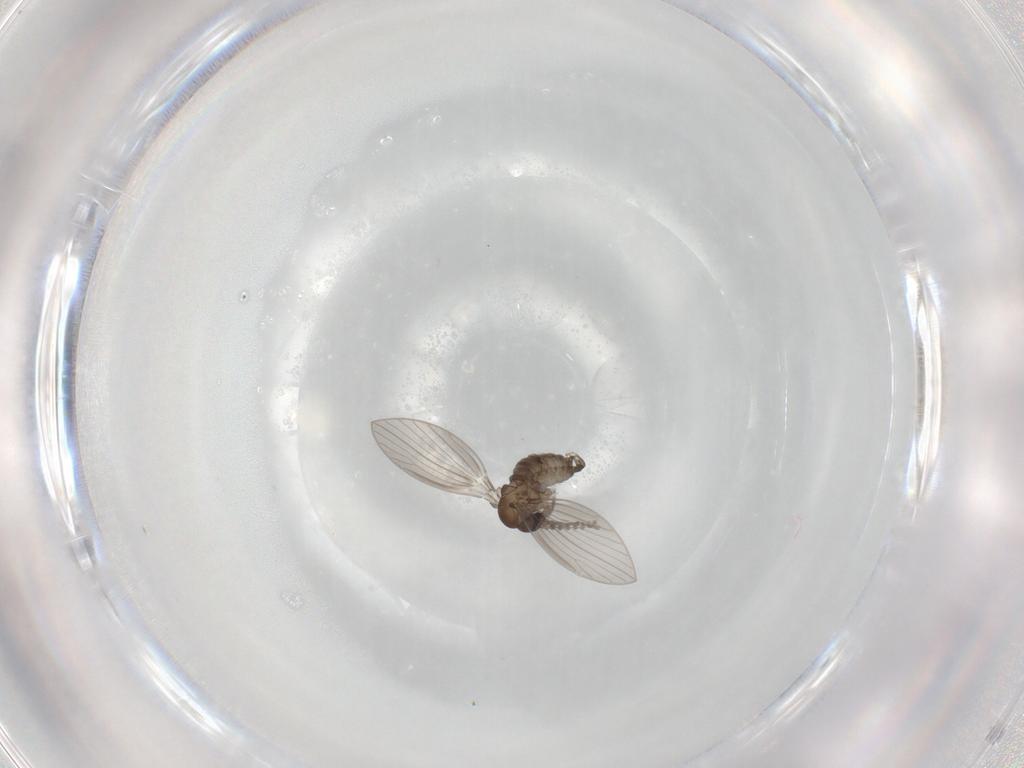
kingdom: Animalia
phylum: Arthropoda
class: Insecta
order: Diptera
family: Psychodidae
